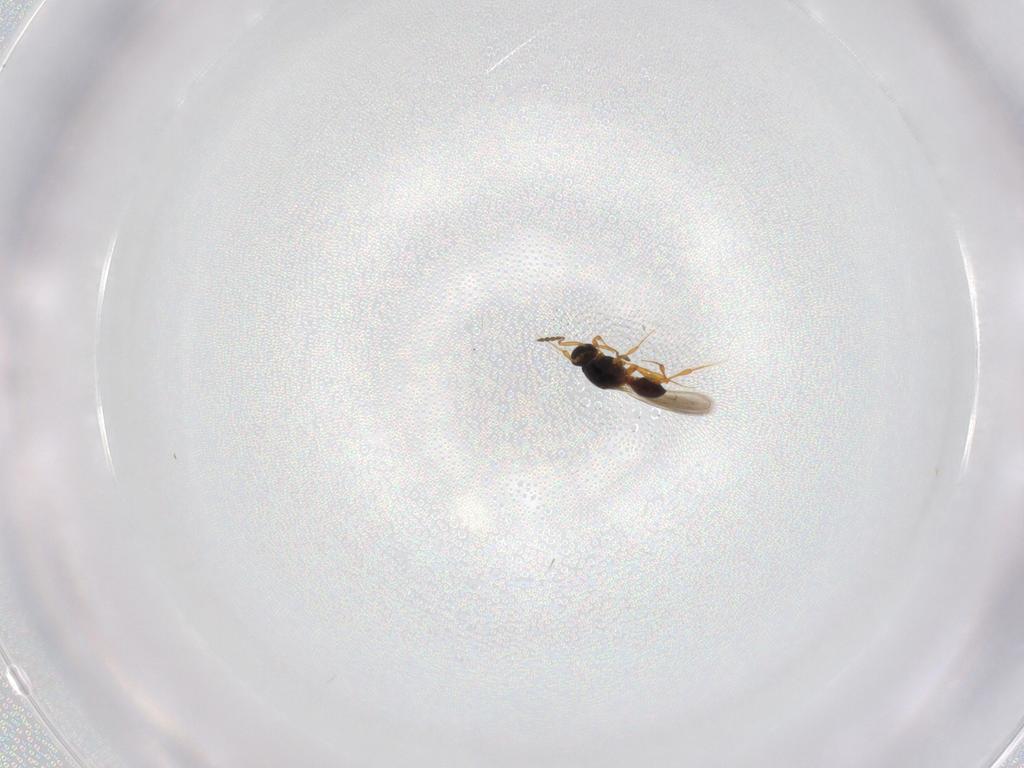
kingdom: Animalia
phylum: Arthropoda
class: Insecta
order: Hymenoptera
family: Platygastridae
